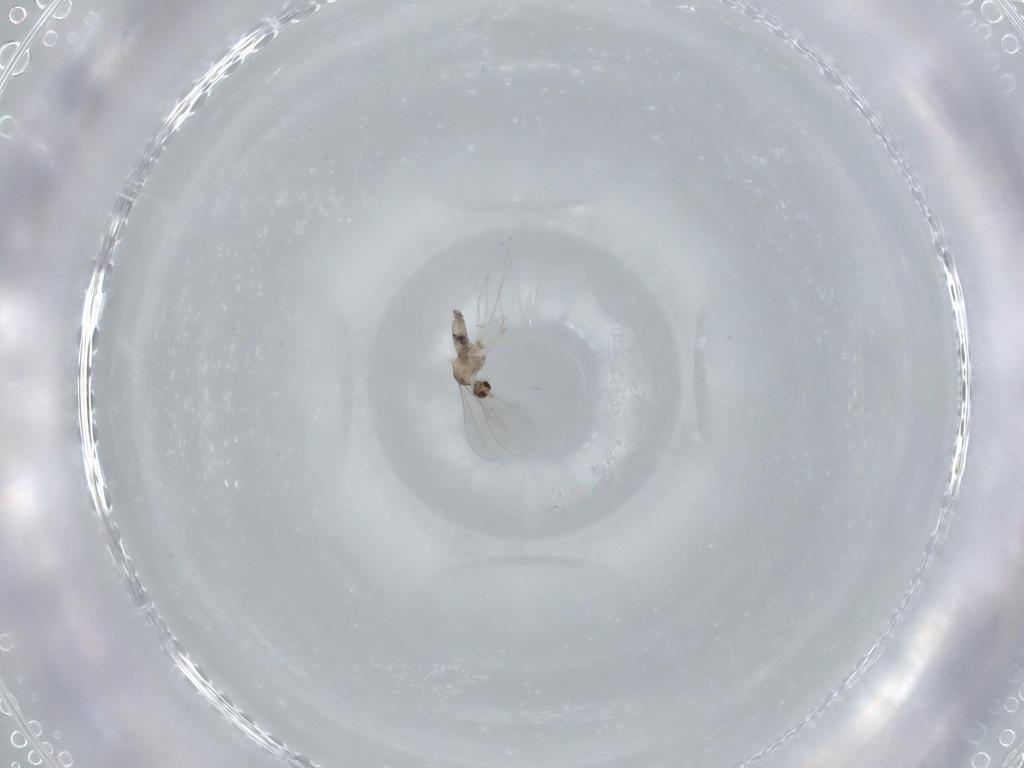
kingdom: Animalia
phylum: Arthropoda
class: Insecta
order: Diptera
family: Cecidomyiidae
